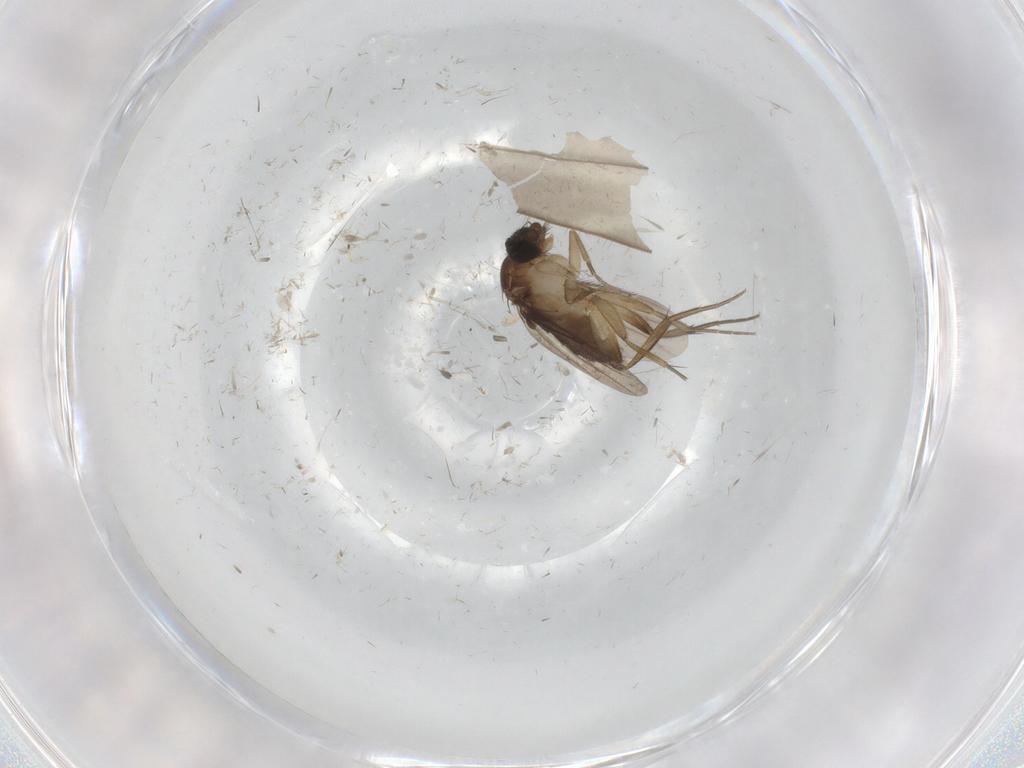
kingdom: Animalia
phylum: Arthropoda
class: Insecta
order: Diptera
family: Phoridae
